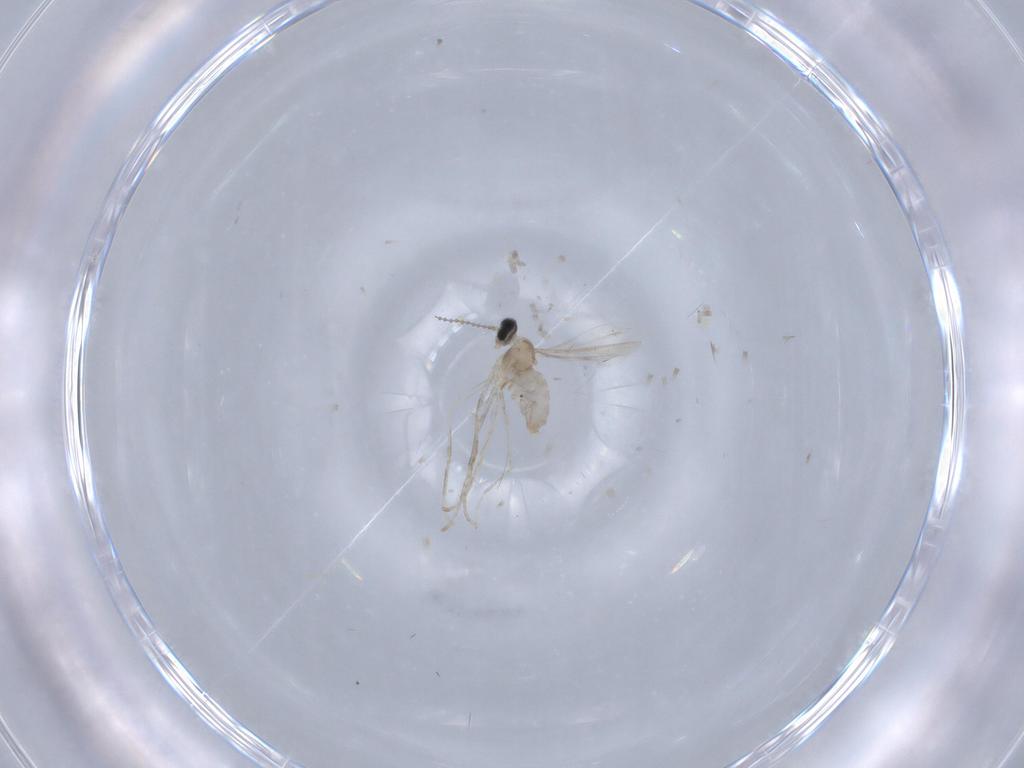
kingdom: Animalia
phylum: Arthropoda
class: Insecta
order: Diptera
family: Cecidomyiidae
